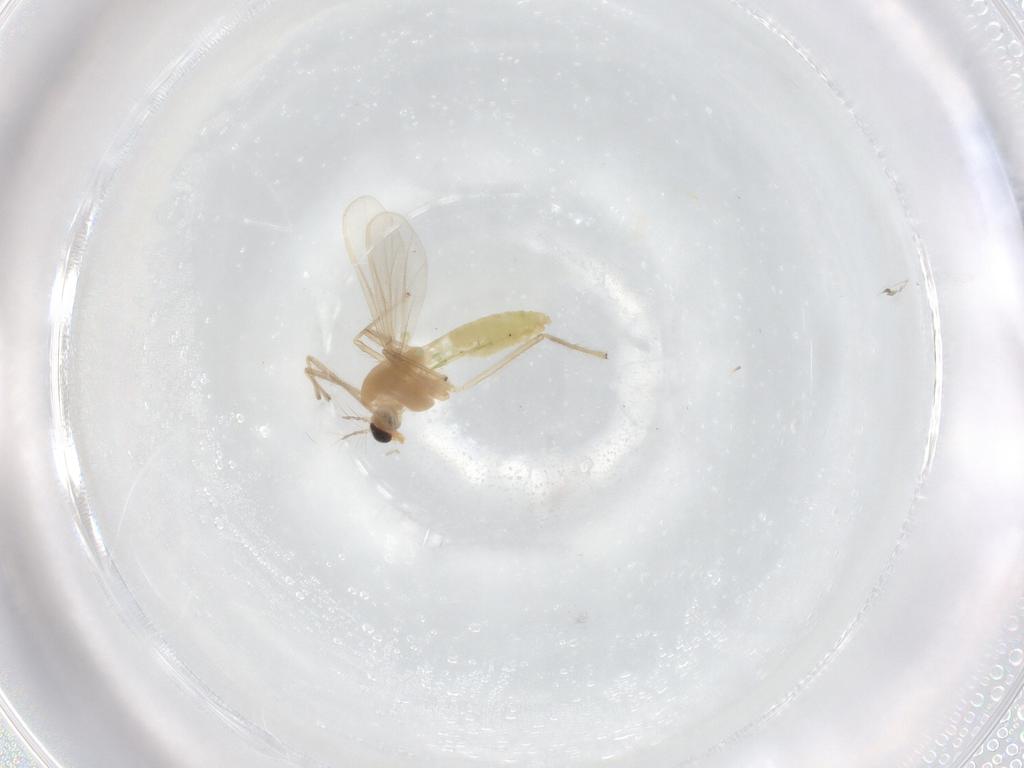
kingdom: Animalia
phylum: Arthropoda
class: Insecta
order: Diptera
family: Chironomidae
